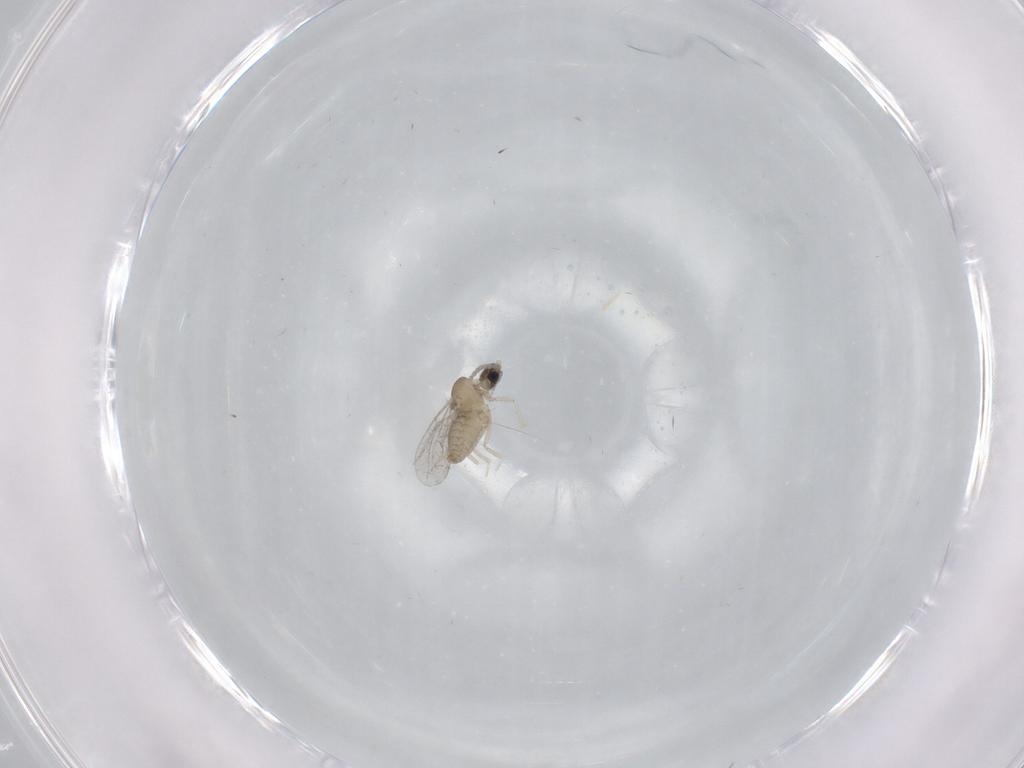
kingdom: Animalia
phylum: Arthropoda
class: Insecta
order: Diptera
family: Cecidomyiidae
